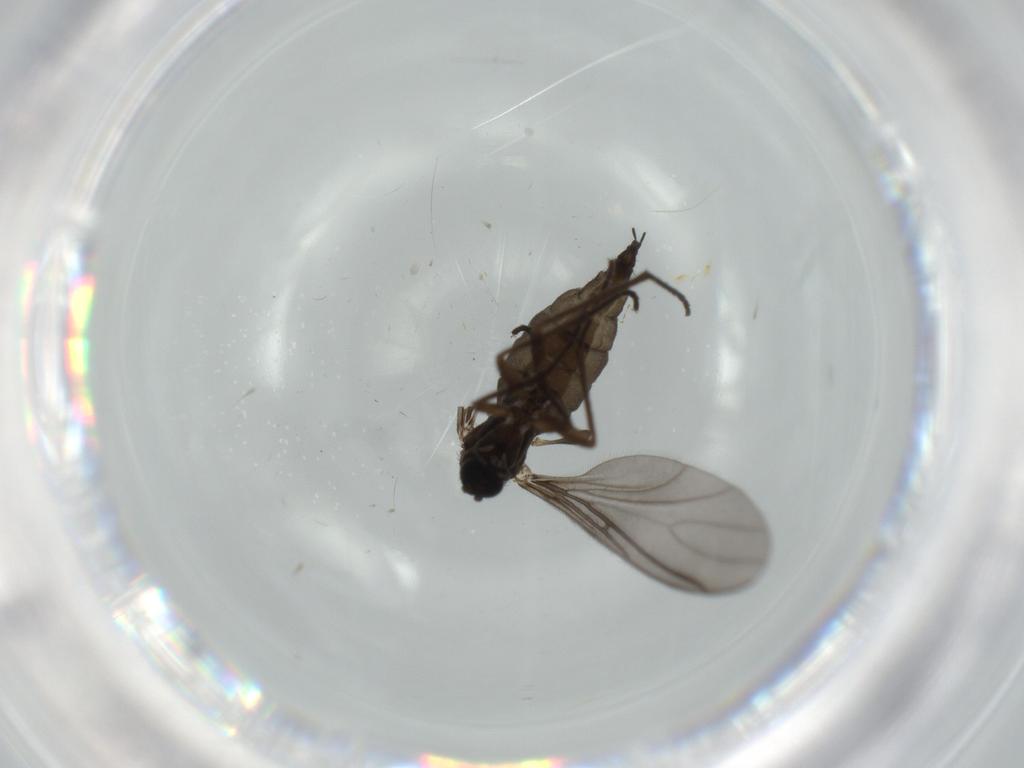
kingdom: Animalia
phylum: Arthropoda
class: Insecta
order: Diptera
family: Sciaridae
